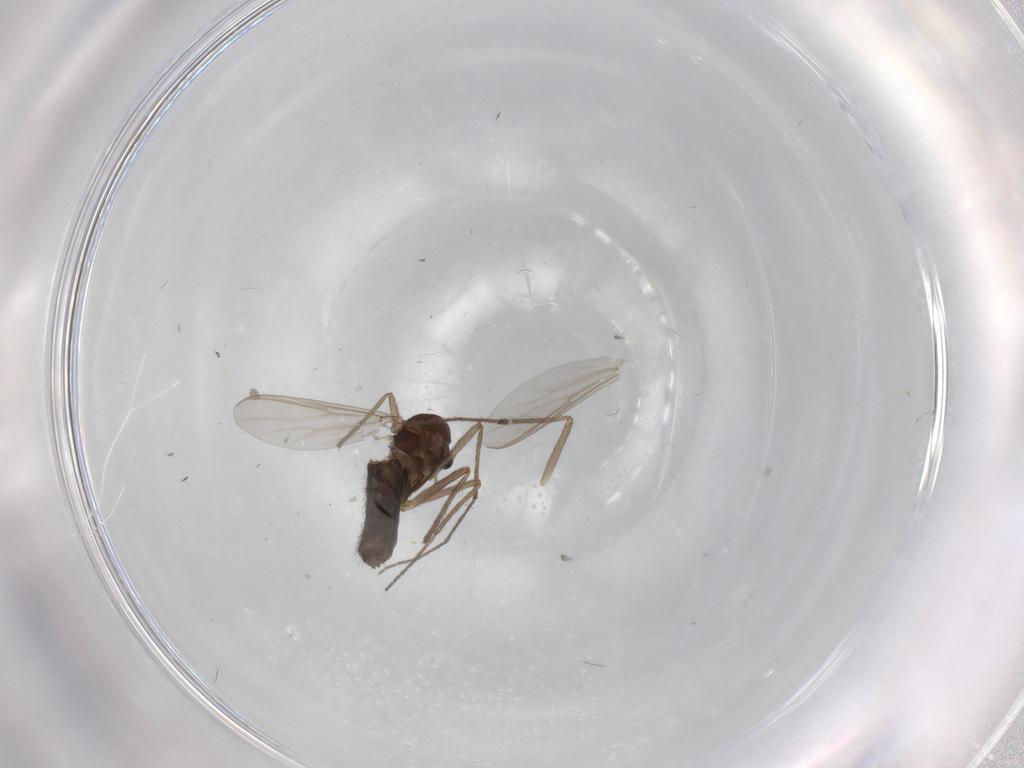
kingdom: Animalia
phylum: Arthropoda
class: Insecta
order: Diptera
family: Chironomidae
